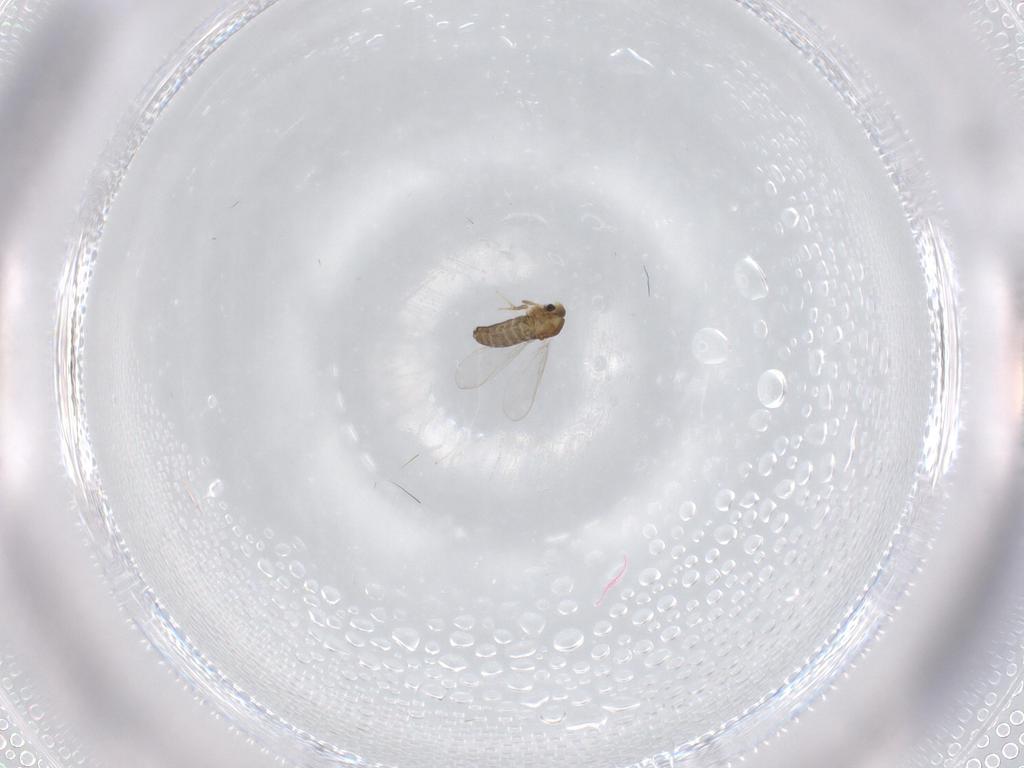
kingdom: Animalia
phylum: Arthropoda
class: Insecta
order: Diptera
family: Chironomidae
